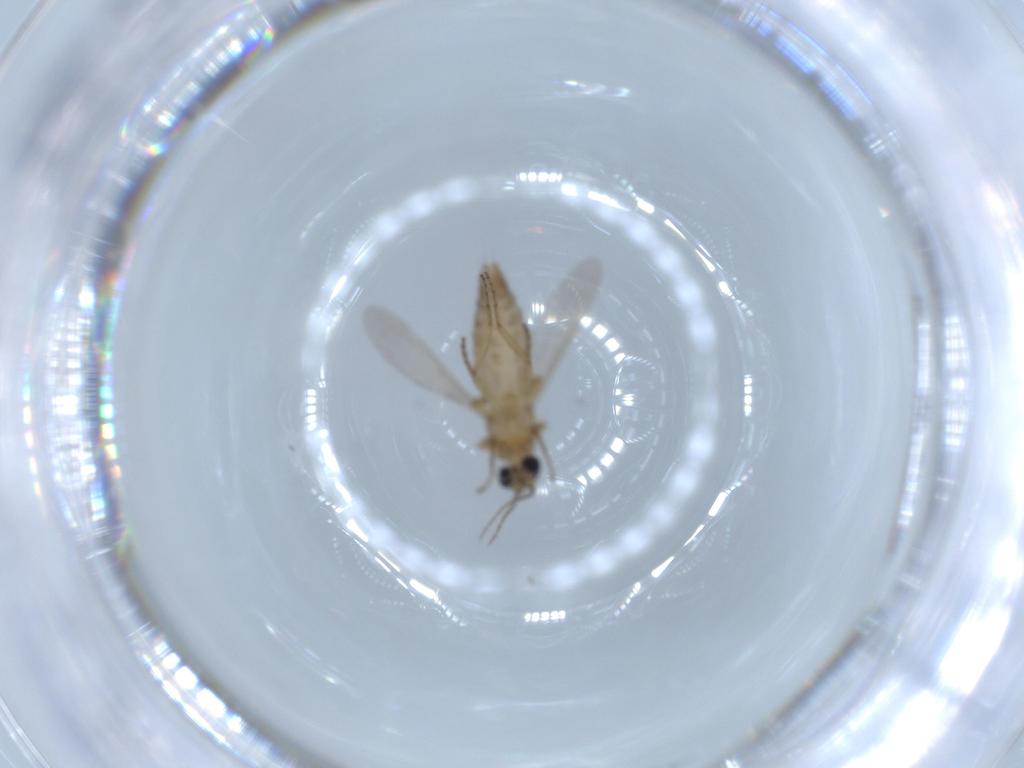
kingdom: Animalia
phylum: Arthropoda
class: Insecta
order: Diptera
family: Ceratopogonidae
